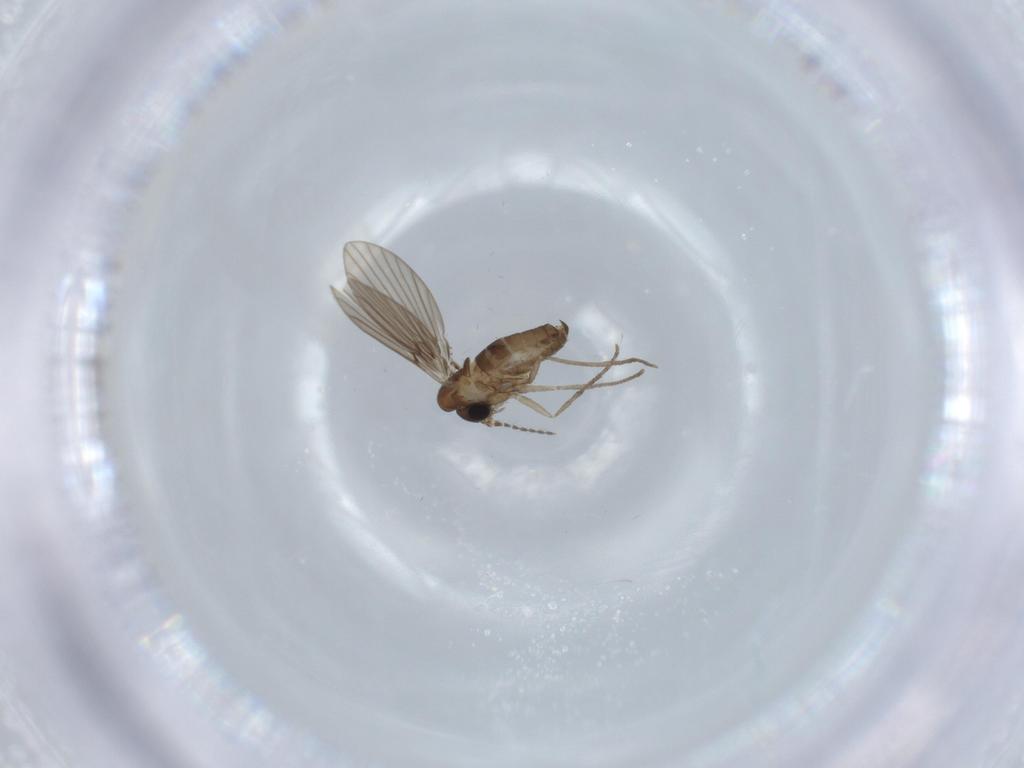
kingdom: Animalia
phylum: Arthropoda
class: Insecta
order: Diptera
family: Psychodidae
